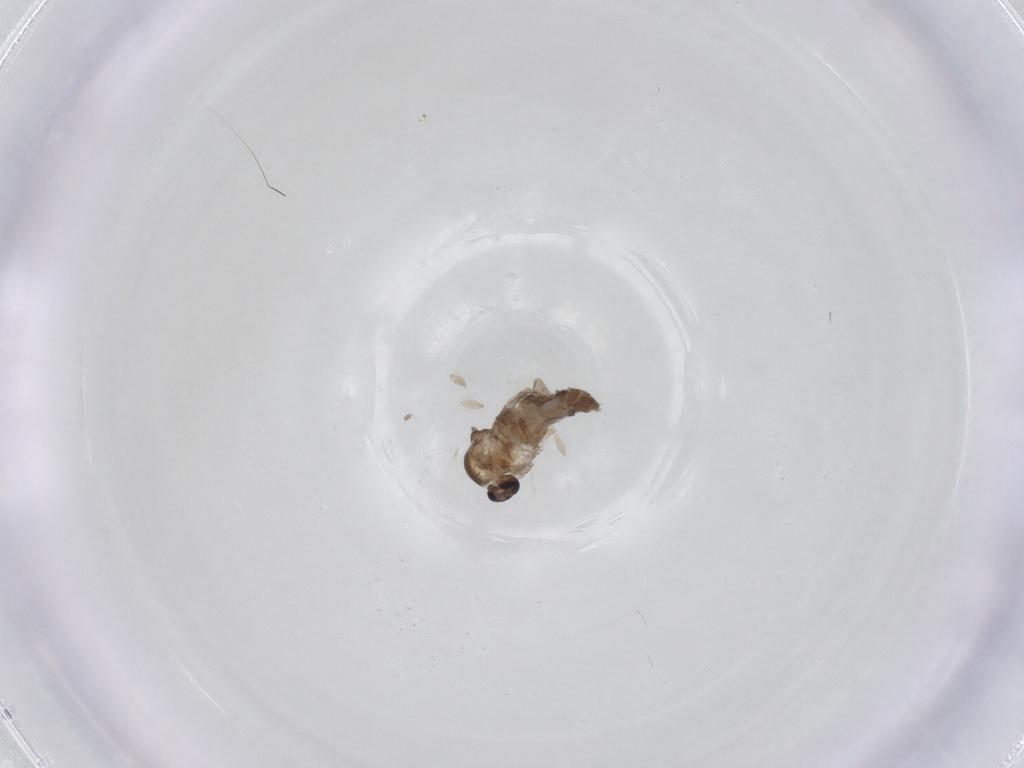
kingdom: Animalia
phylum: Arthropoda
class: Insecta
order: Diptera
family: Ceratopogonidae
